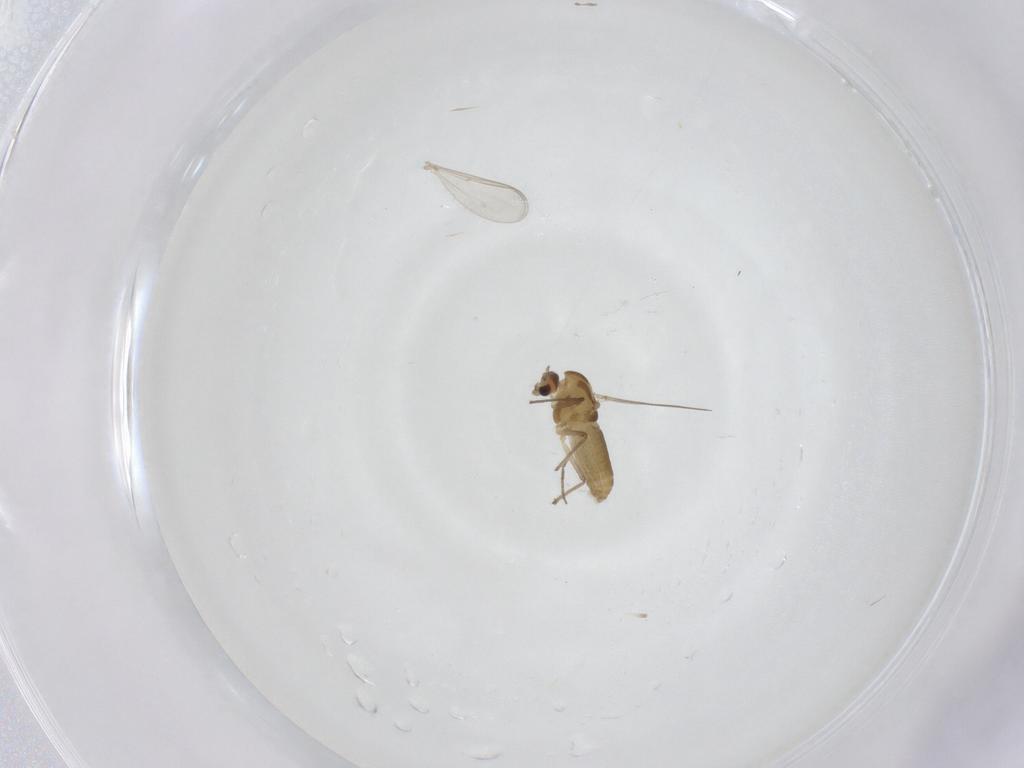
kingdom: Animalia
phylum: Arthropoda
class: Insecta
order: Diptera
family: Chironomidae
